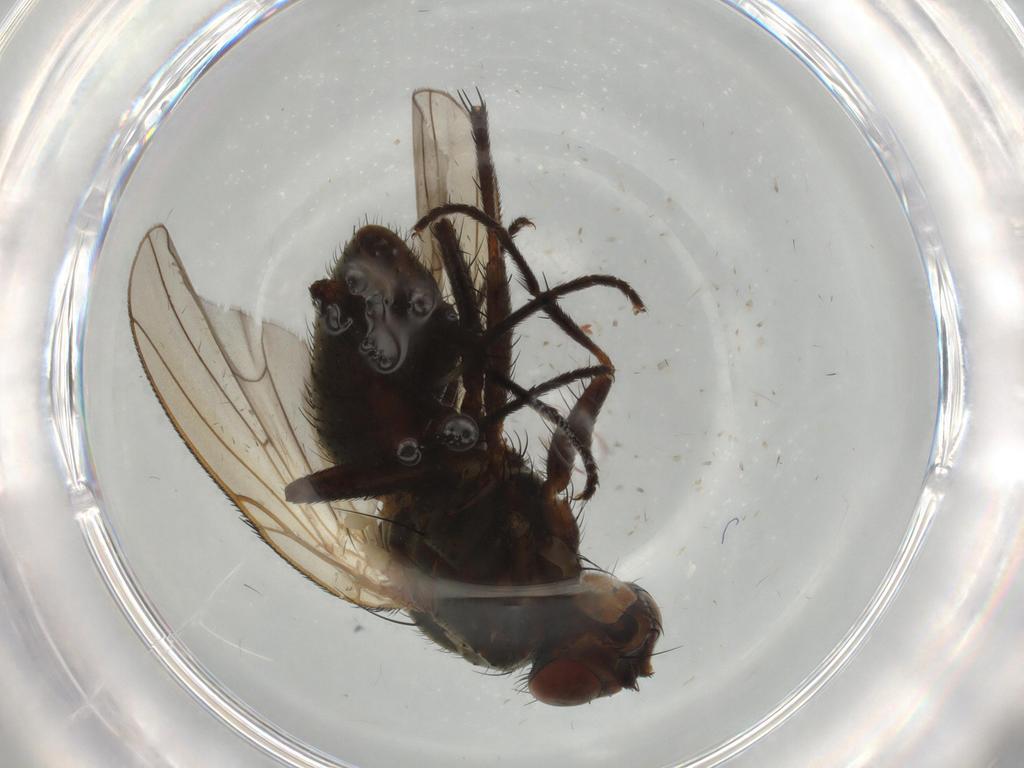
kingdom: Animalia
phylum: Arthropoda
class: Insecta
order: Diptera
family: Anthomyiidae
